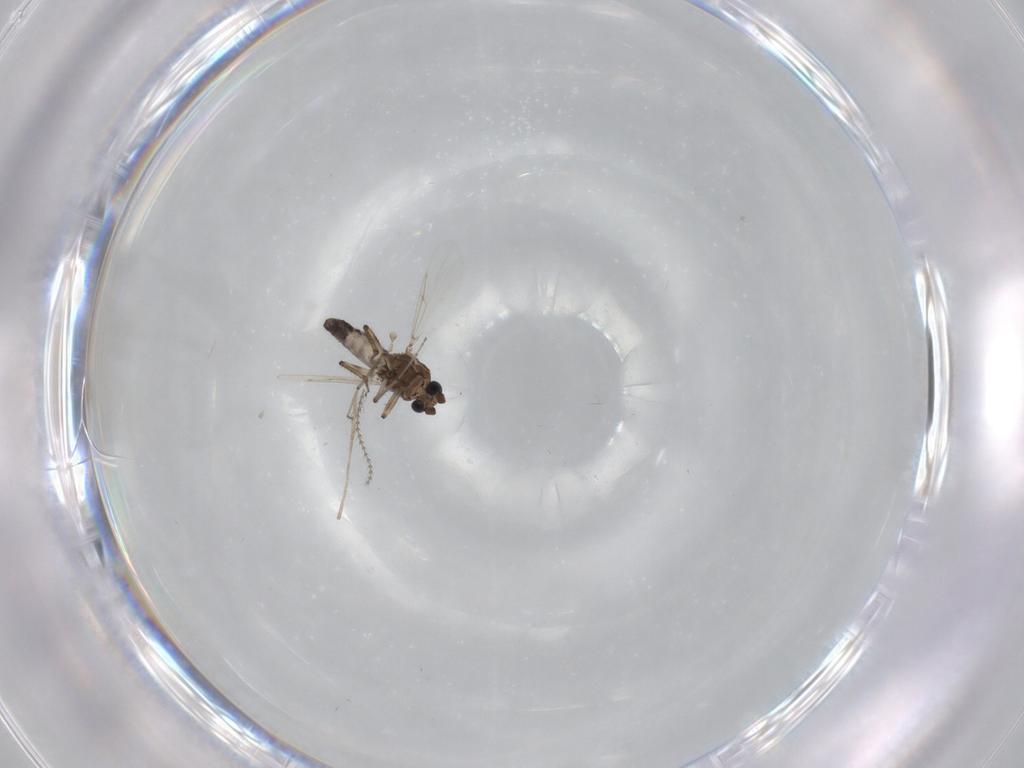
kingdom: Animalia
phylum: Arthropoda
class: Insecta
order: Diptera
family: Ceratopogonidae
